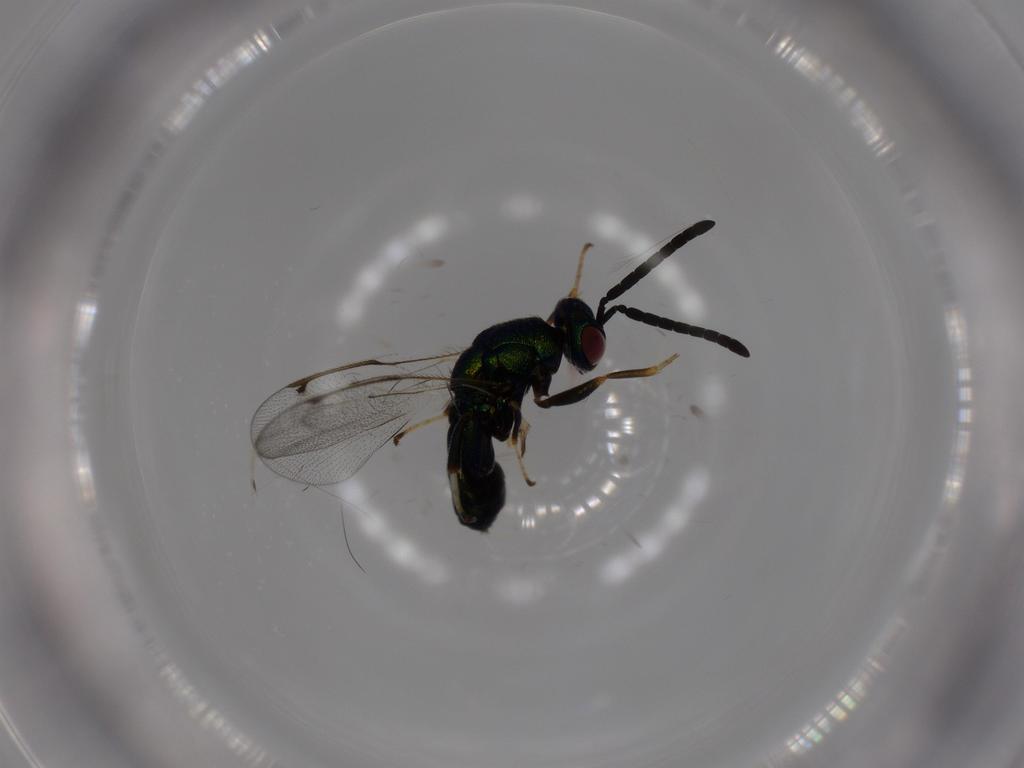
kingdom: Animalia
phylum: Arthropoda
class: Insecta
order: Hymenoptera
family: Torymidae
